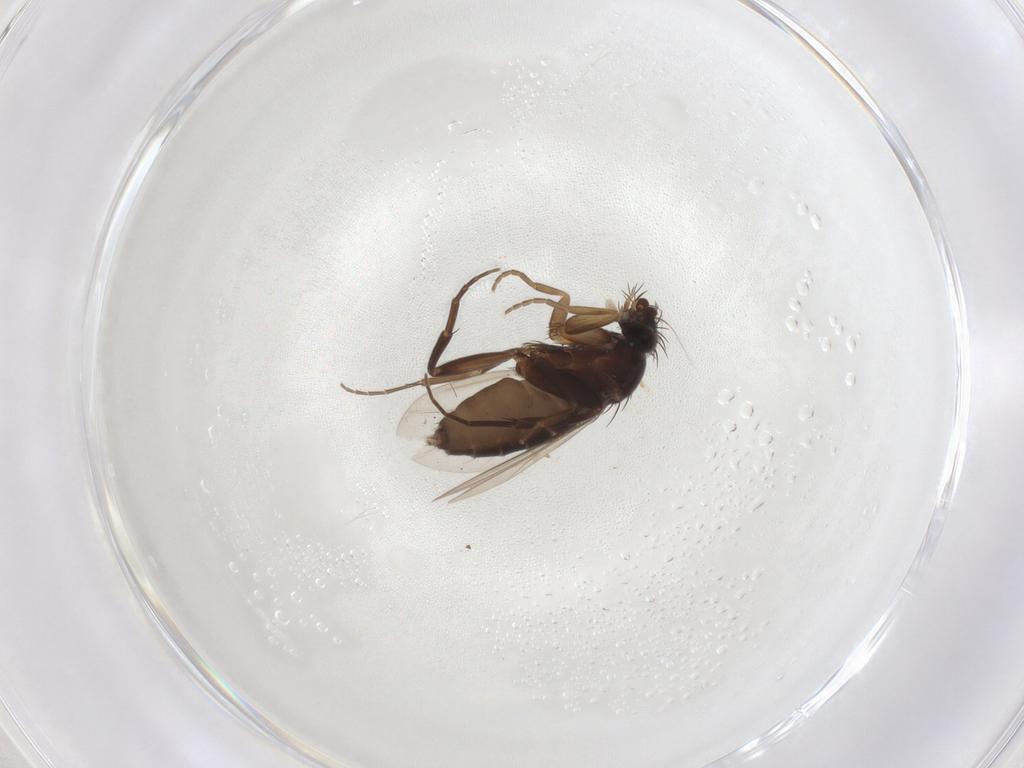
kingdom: Animalia
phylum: Arthropoda
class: Insecta
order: Diptera
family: Phoridae
